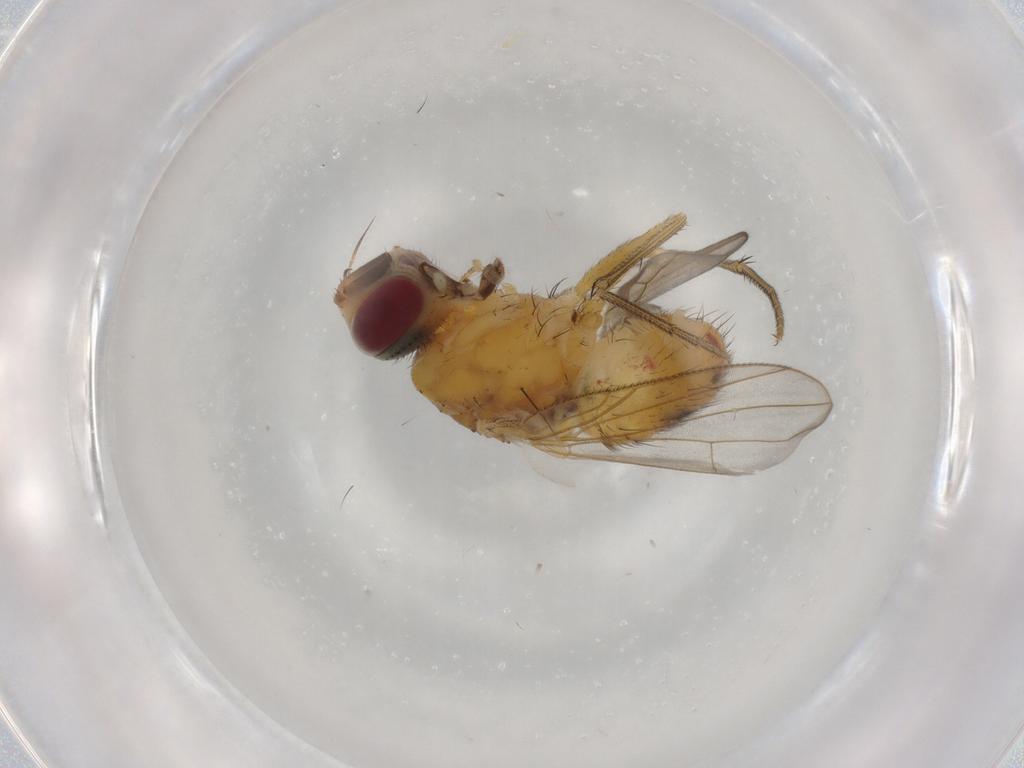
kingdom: Animalia
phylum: Arthropoda
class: Insecta
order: Diptera
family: Muscidae
